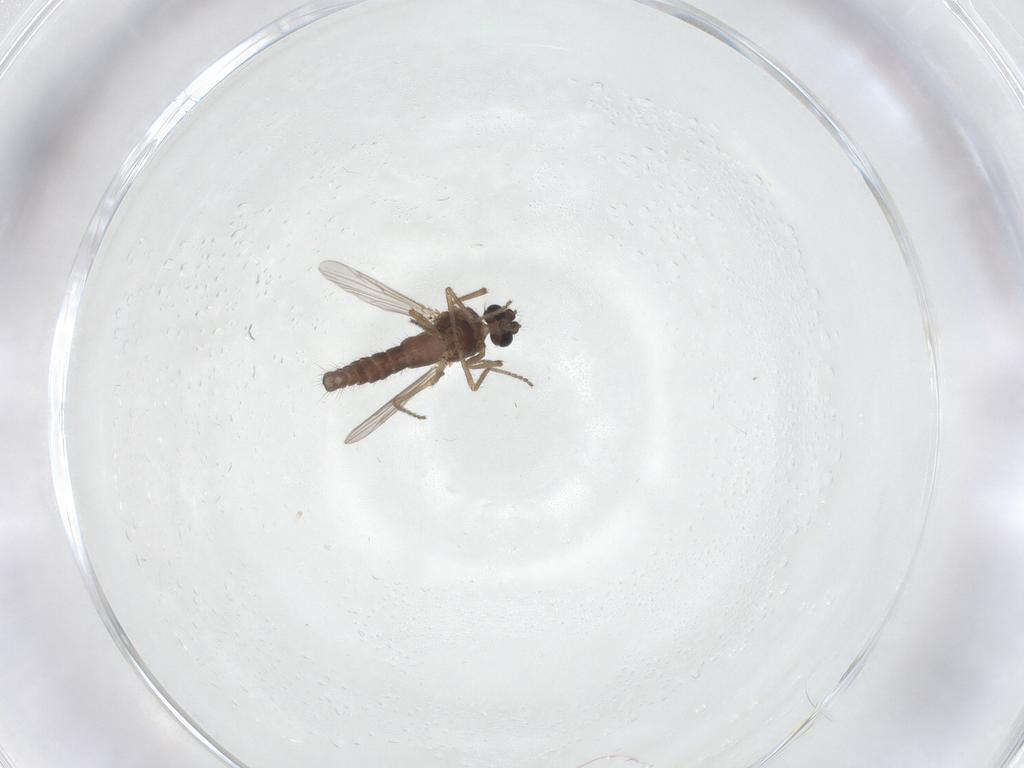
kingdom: Animalia
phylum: Arthropoda
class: Insecta
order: Diptera
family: Ceratopogonidae
